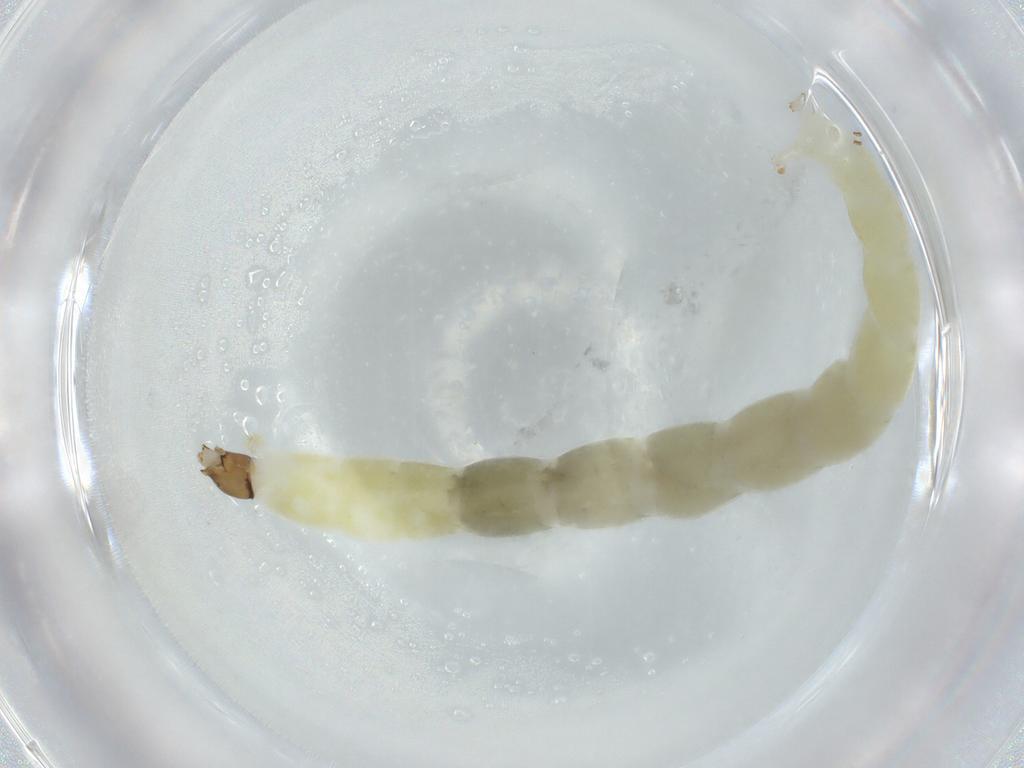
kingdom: Animalia
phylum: Arthropoda
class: Insecta
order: Diptera
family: Chironomidae
